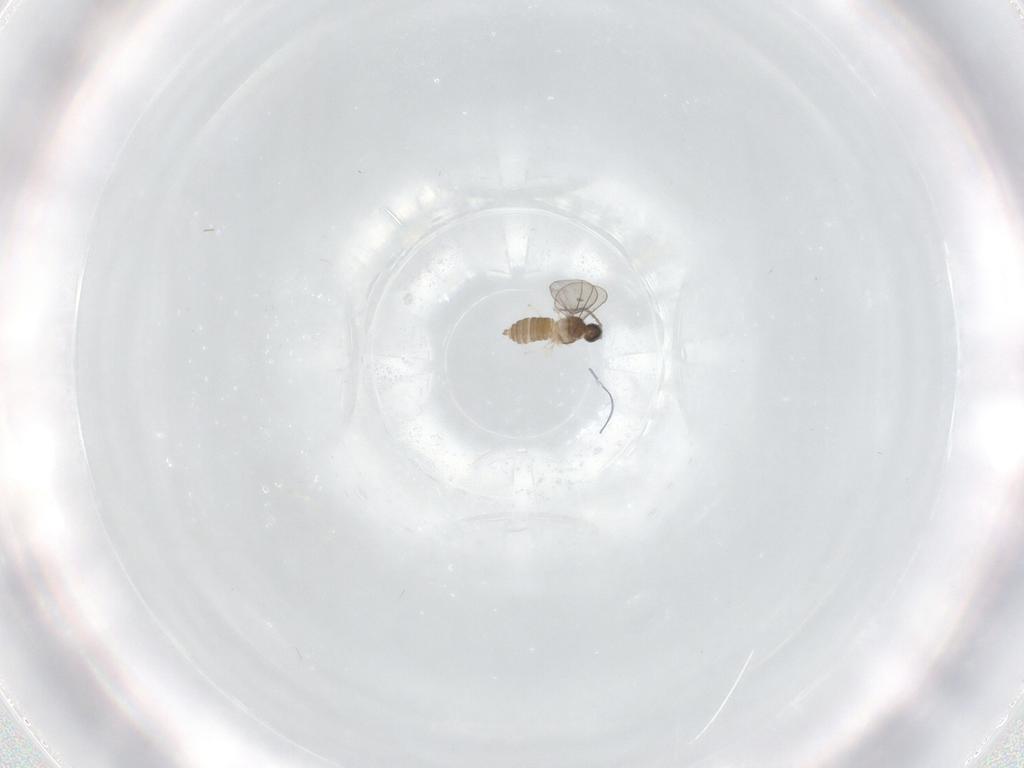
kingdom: Animalia
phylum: Arthropoda
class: Insecta
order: Diptera
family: Cecidomyiidae
